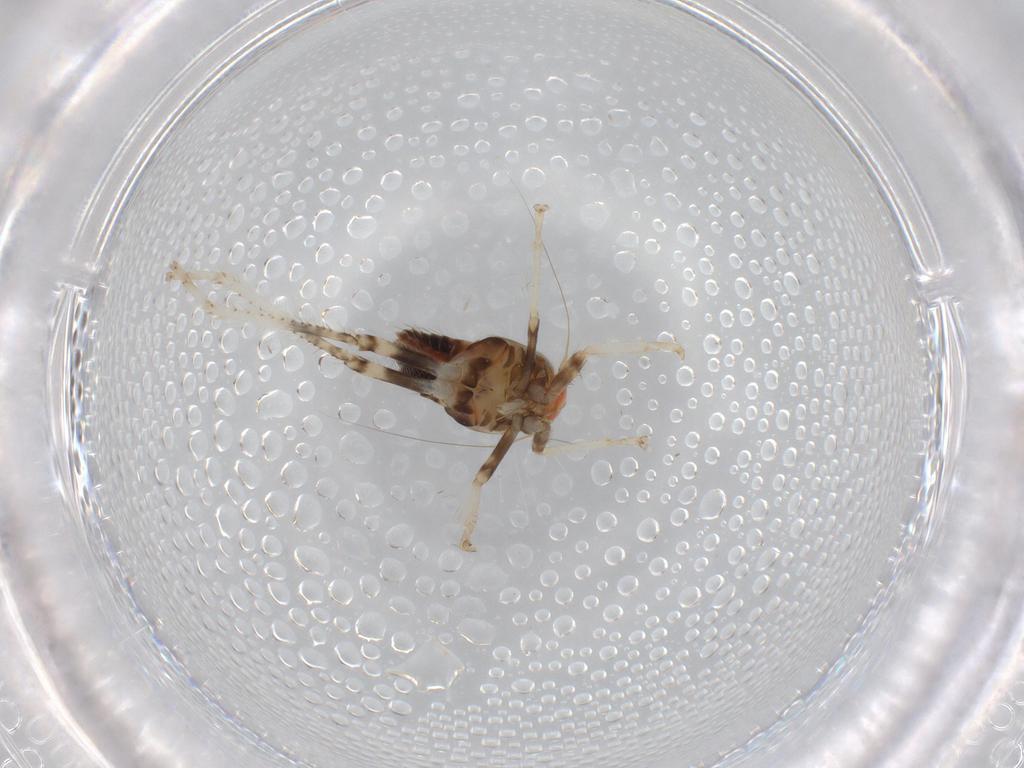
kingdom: Animalia
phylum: Arthropoda
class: Insecta
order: Hemiptera
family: Cicadellidae
